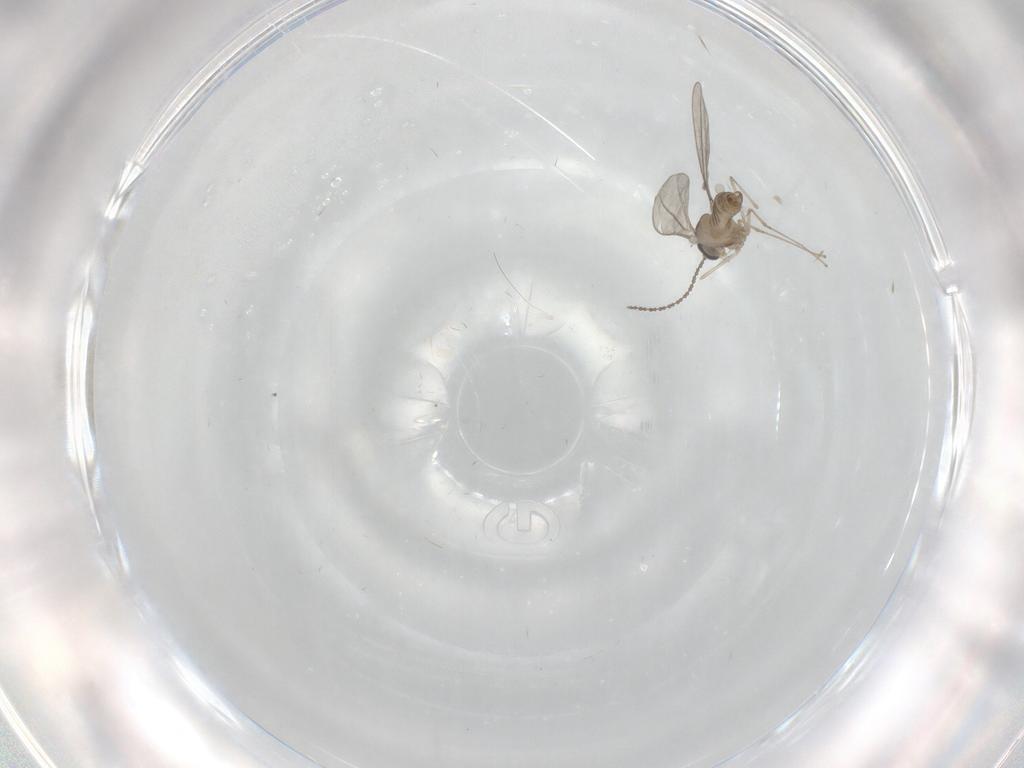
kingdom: Animalia
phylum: Arthropoda
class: Insecta
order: Diptera
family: Cecidomyiidae
